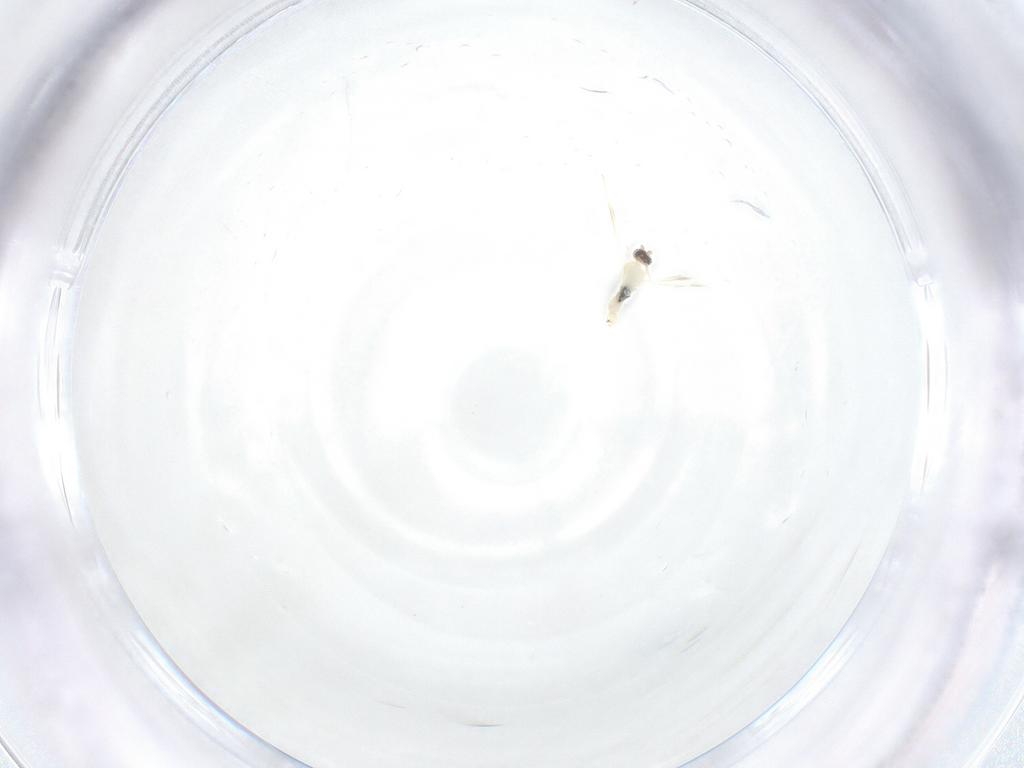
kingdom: Animalia
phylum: Arthropoda
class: Insecta
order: Diptera
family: Cecidomyiidae
